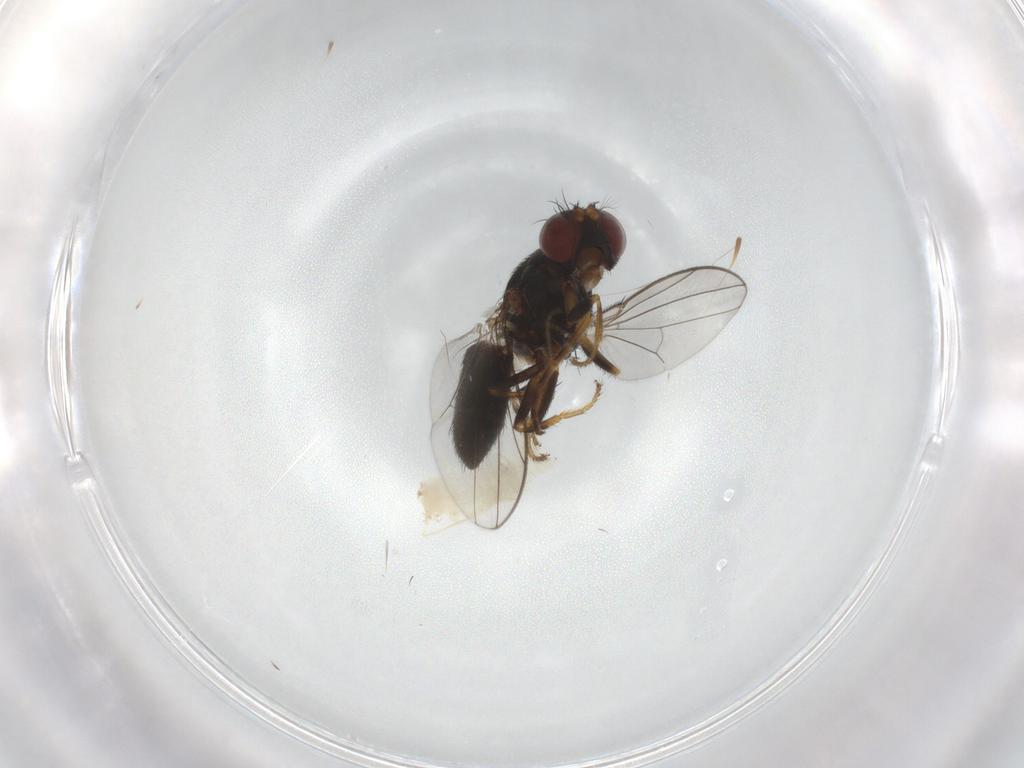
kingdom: Animalia
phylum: Arthropoda
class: Insecta
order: Diptera
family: Ephydridae
